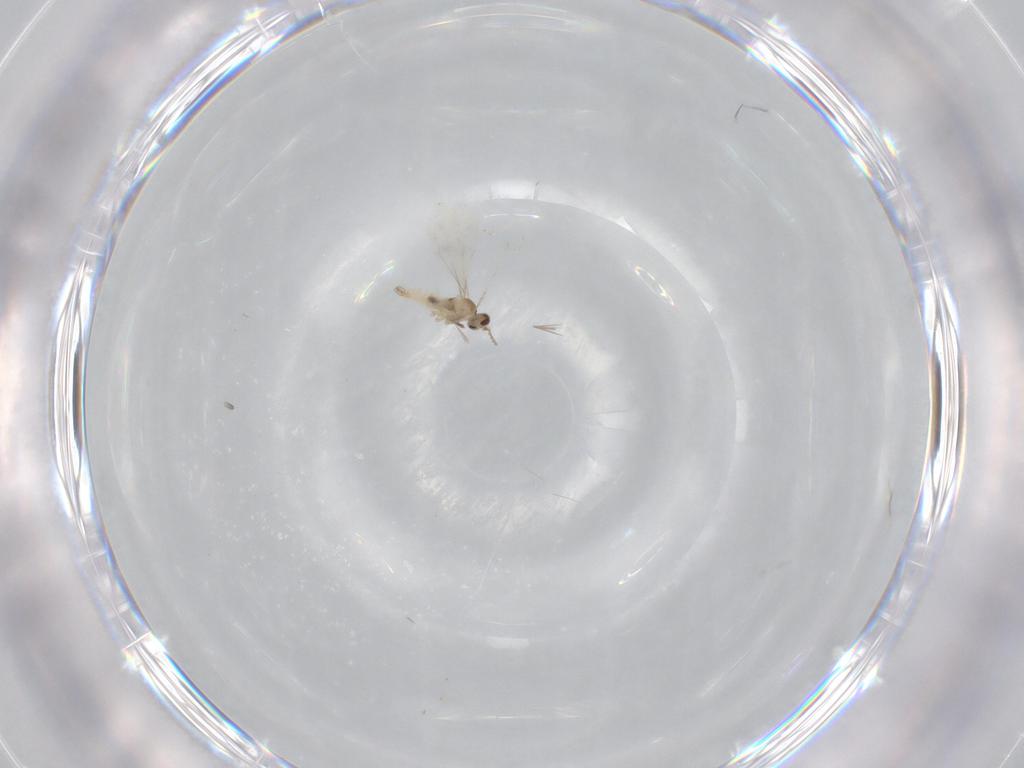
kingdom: Animalia
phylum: Arthropoda
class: Insecta
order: Diptera
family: Cecidomyiidae
